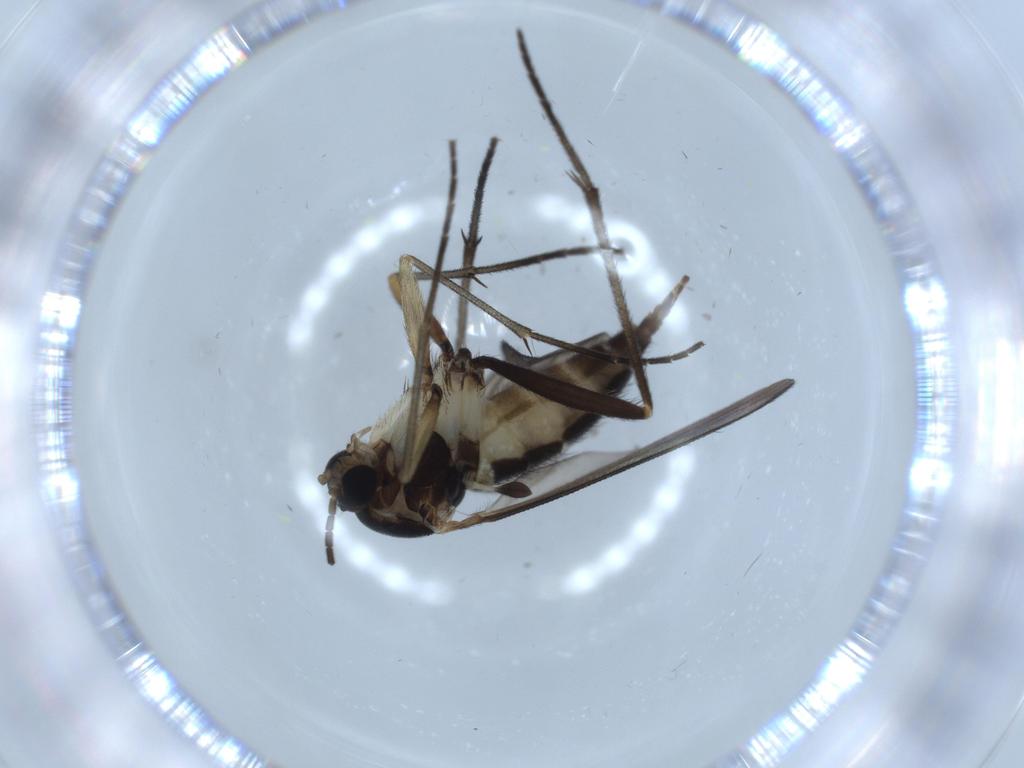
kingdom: Animalia
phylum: Arthropoda
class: Insecta
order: Diptera
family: Sciaridae
